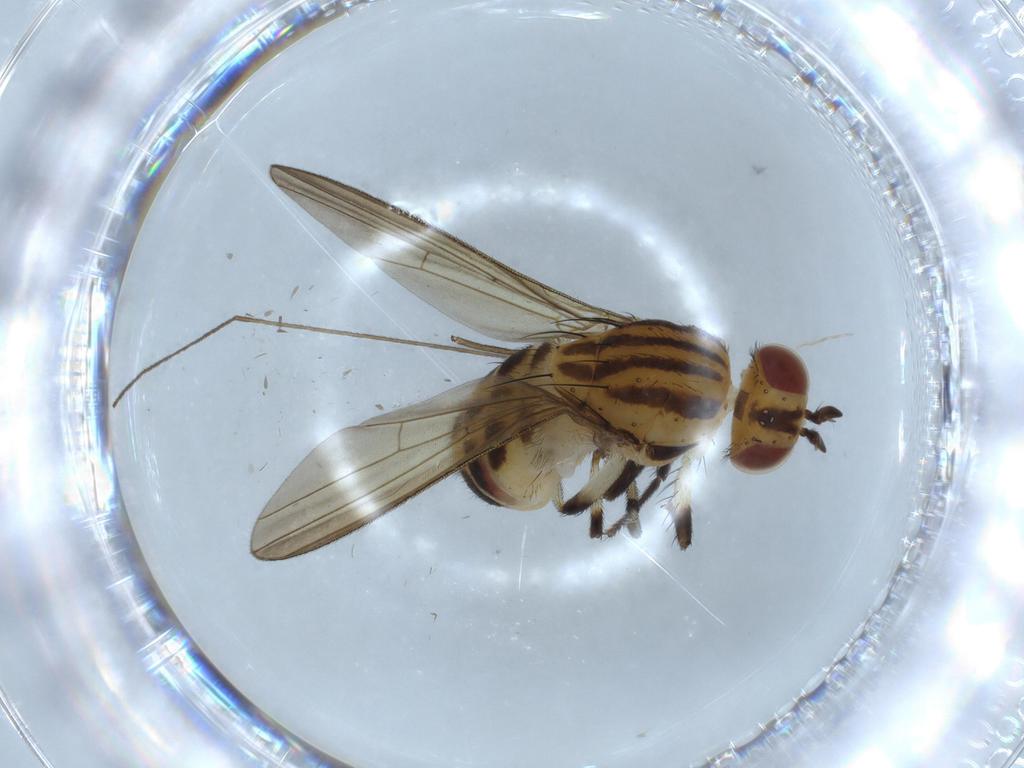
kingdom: Animalia
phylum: Arthropoda
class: Insecta
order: Diptera
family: Lauxaniidae
